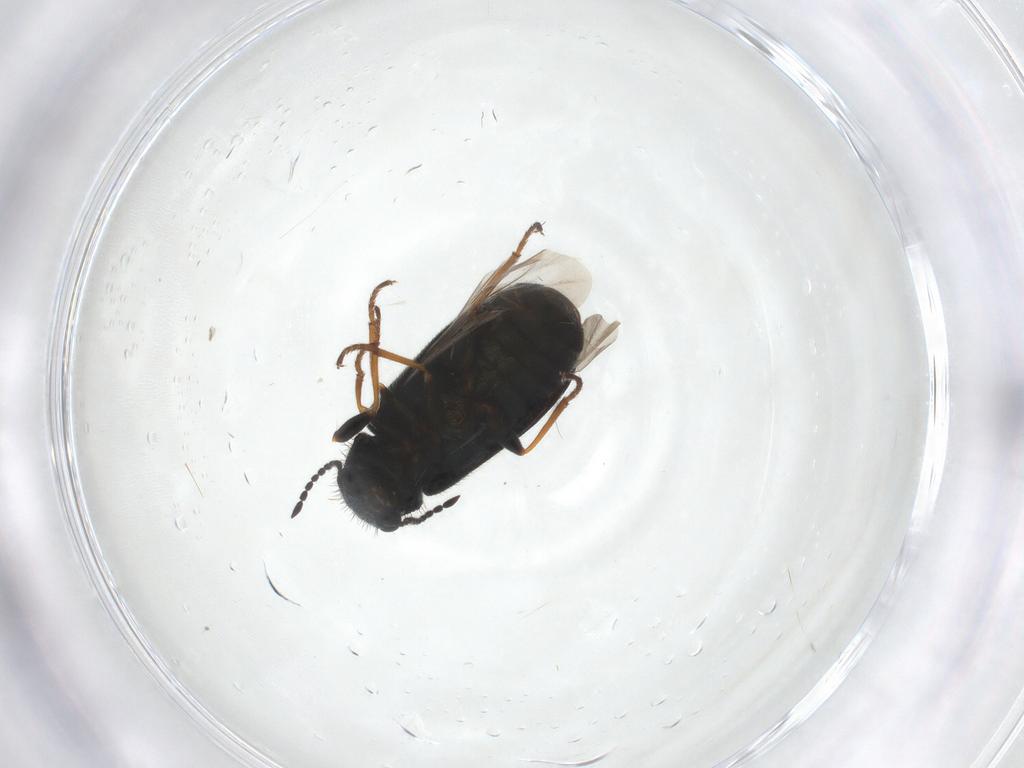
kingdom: Animalia
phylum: Arthropoda
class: Insecta
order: Coleoptera
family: Melyridae
